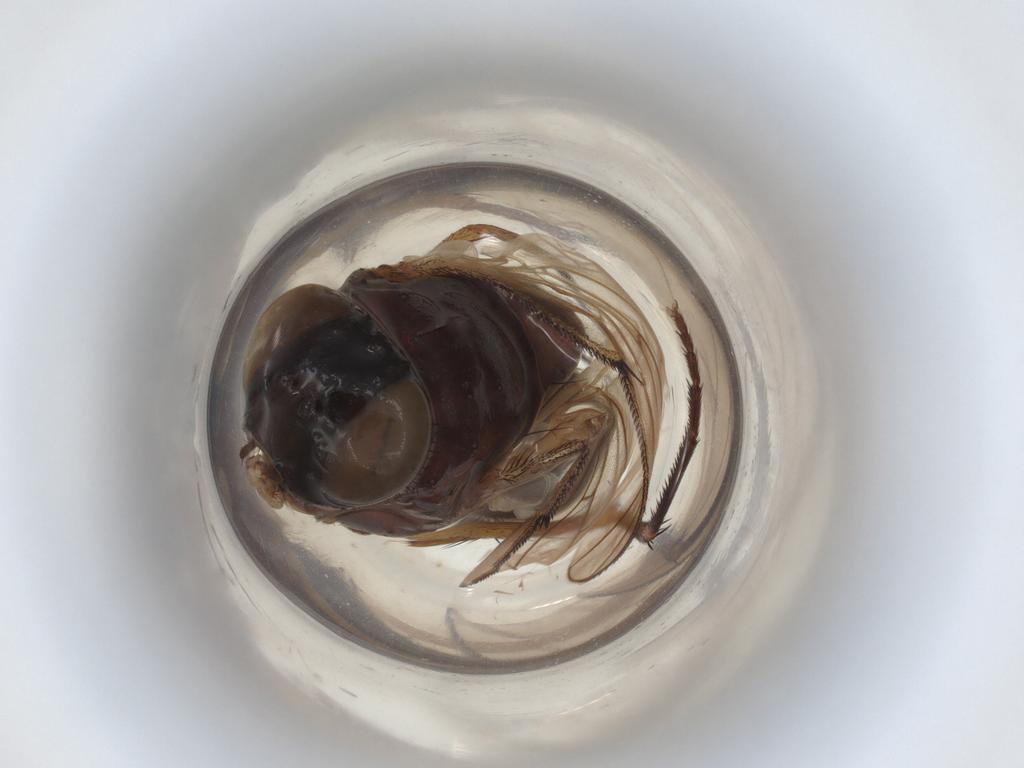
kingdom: Animalia
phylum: Arthropoda
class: Insecta
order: Diptera
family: Muscidae
